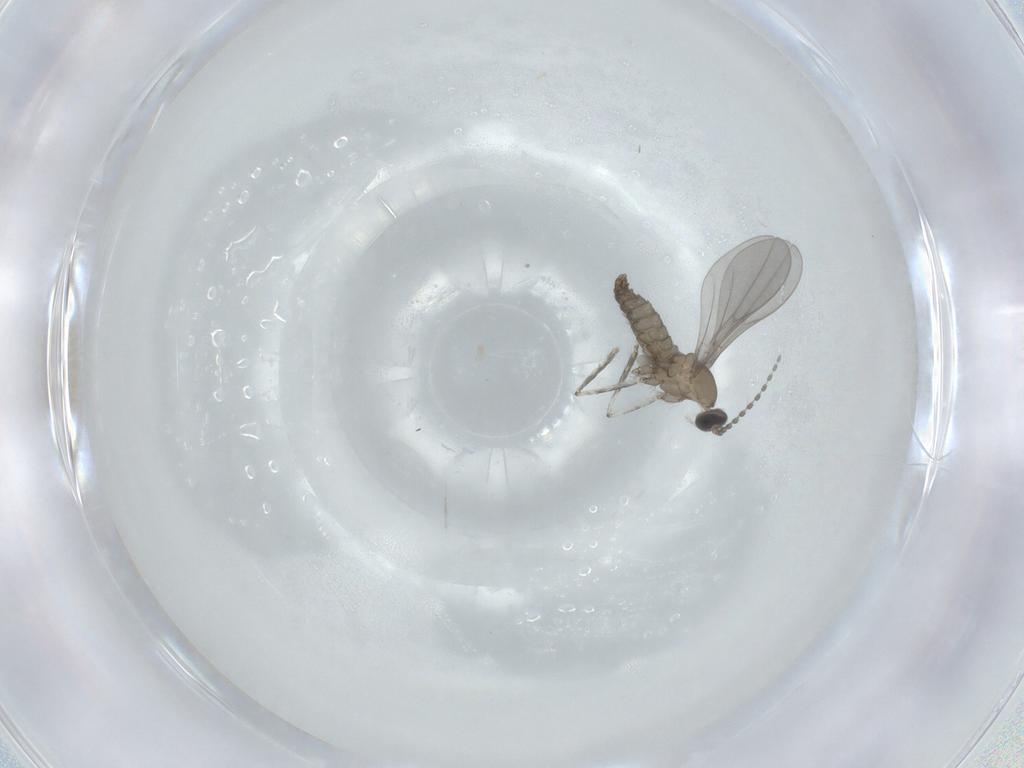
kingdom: Animalia
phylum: Arthropoda
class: Insecta
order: Diptera
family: Cecidomyiidae
